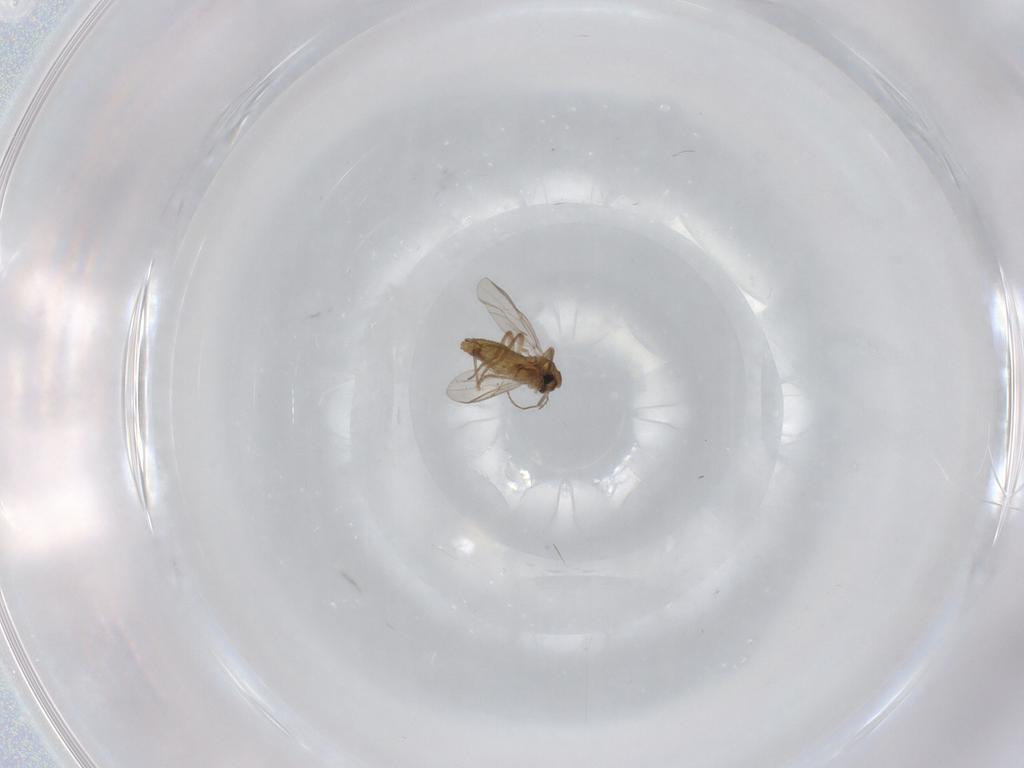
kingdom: Animalia
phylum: Arthropoda
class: Insecta
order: Diptera
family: Chironomidae
